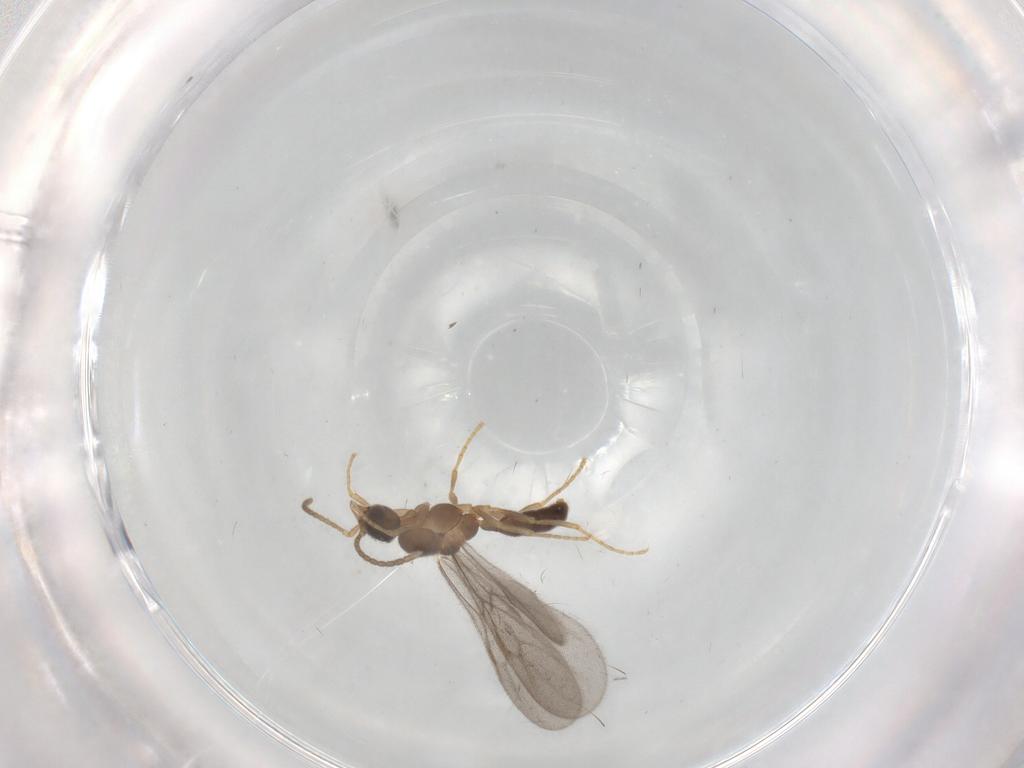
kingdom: Animalia
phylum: Arthropoda
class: Insecta
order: Hymenoptera
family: Formicidae
